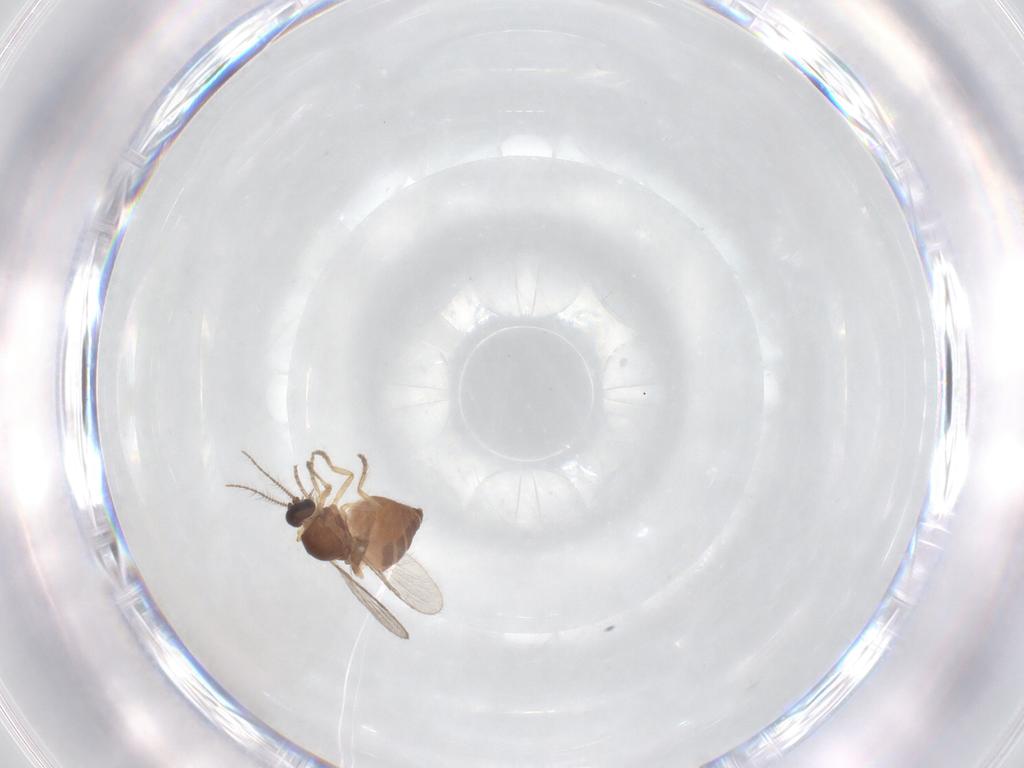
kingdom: Animalia
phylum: Arthropoda
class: Insecta
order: Diptera
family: Ceratopogonidae
